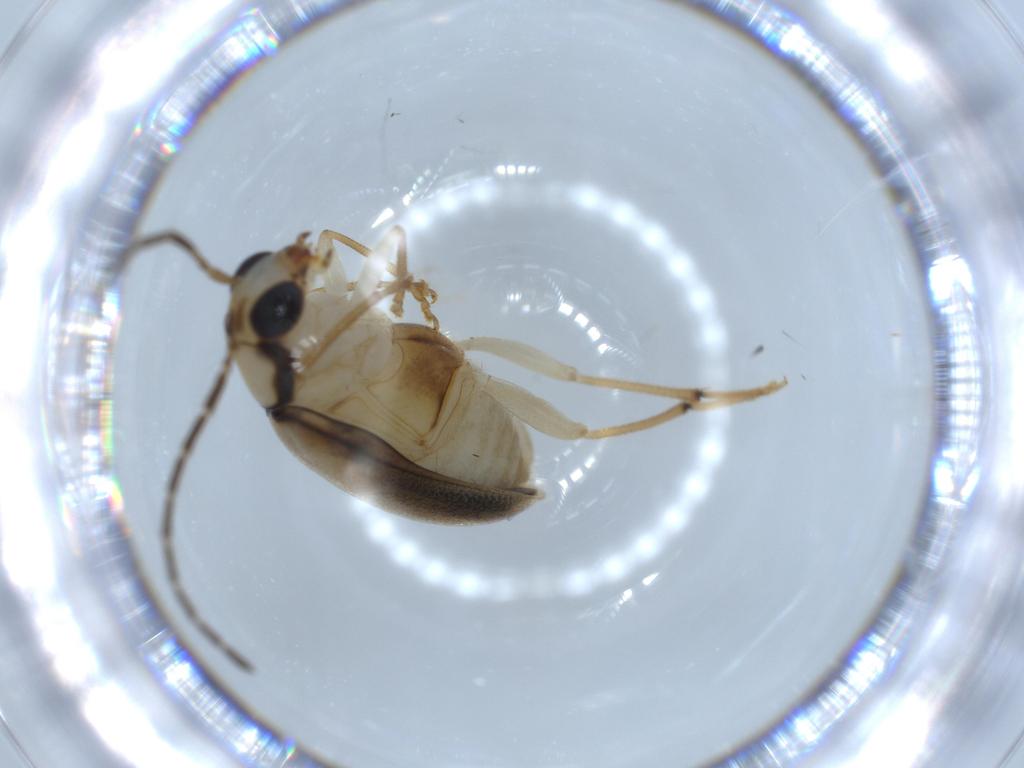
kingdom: Animalia
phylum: Arthropoda
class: Insecta
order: Coleoptera
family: Chrysomelidae
